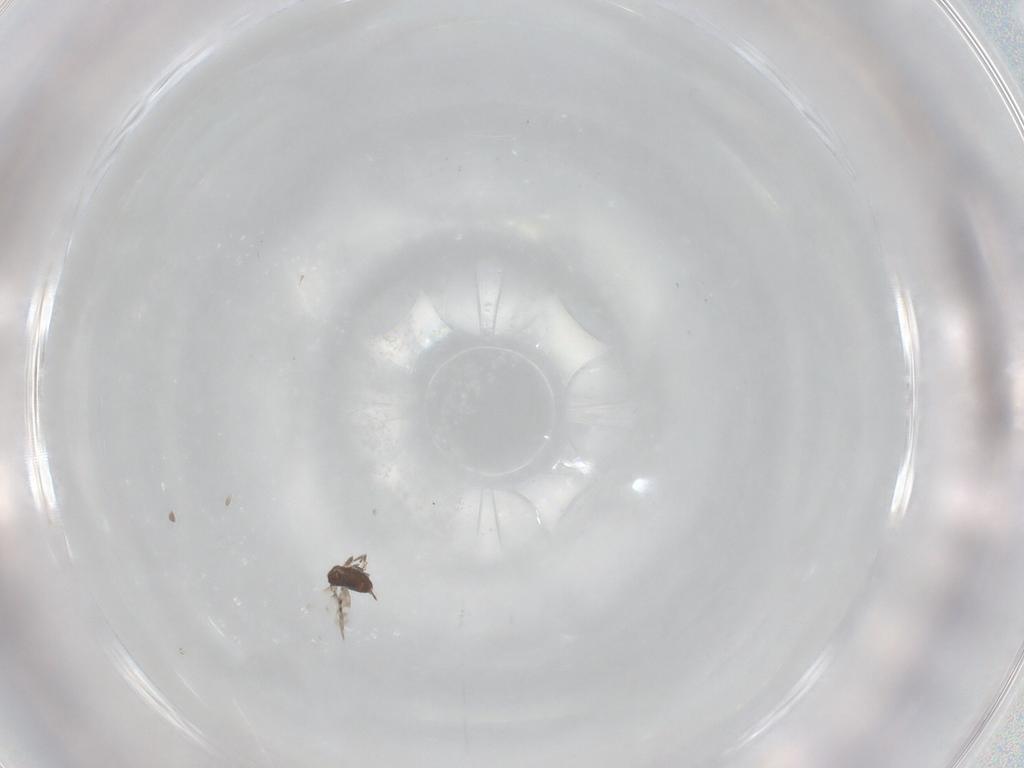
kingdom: Animalia
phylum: Arthropoda
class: Insecta
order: Hymenoptera
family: Azotidae
